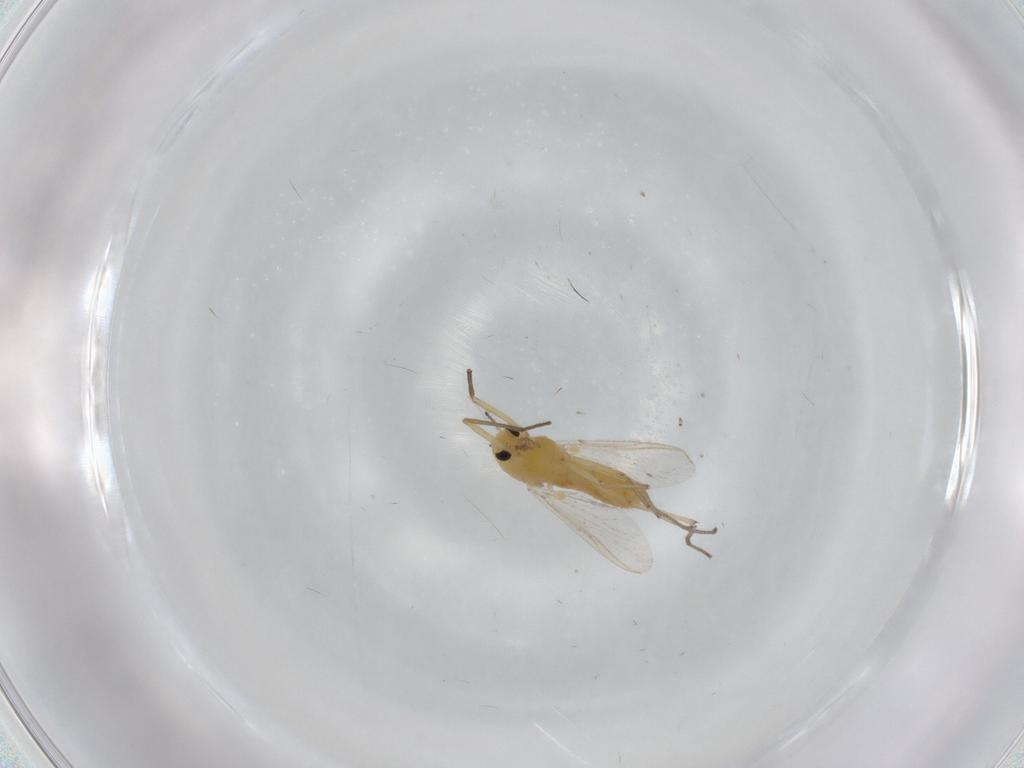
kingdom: Animalia
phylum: Arthropoda
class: Insecta
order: Diptera
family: Chironomidae
